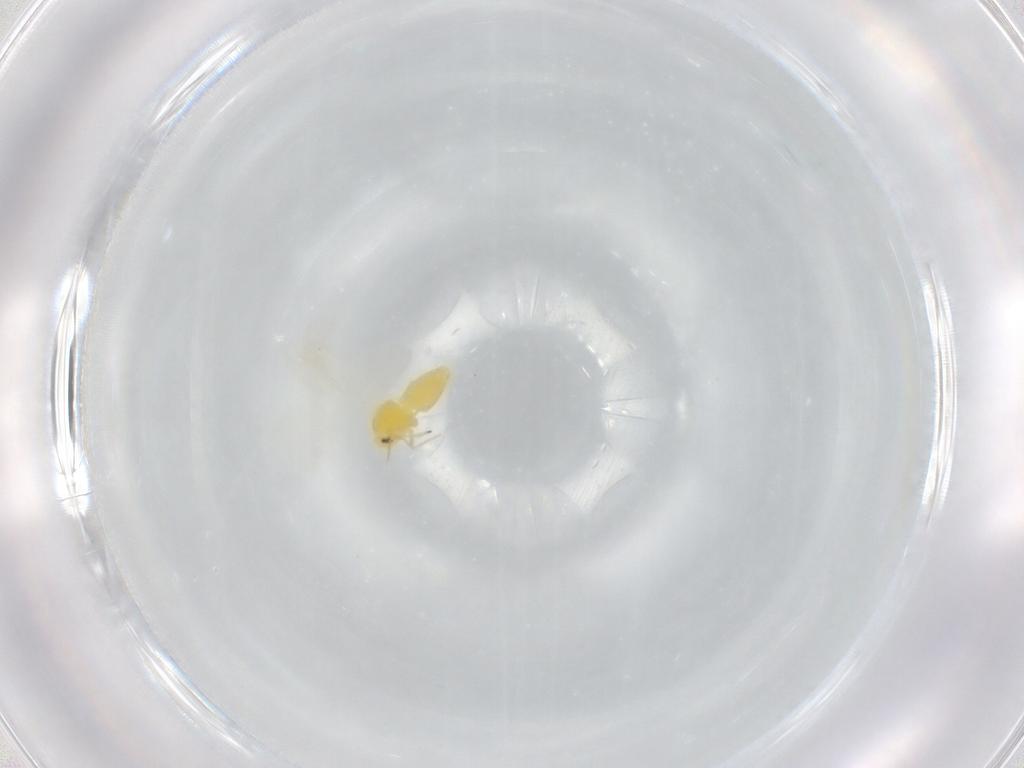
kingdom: Animalia
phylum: Arthropoda
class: Insecta
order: Hemiptera
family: Aleyrodidae
